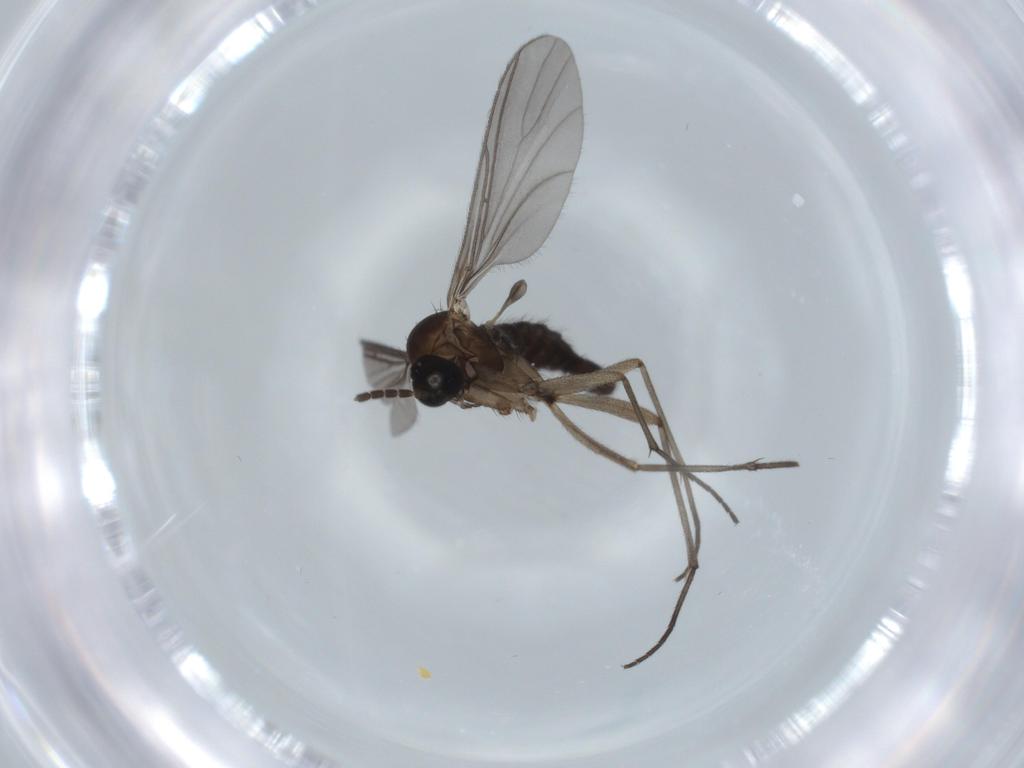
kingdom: Animalia
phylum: Arthropoda
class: Insecta
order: Diptera
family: Sciaridae
